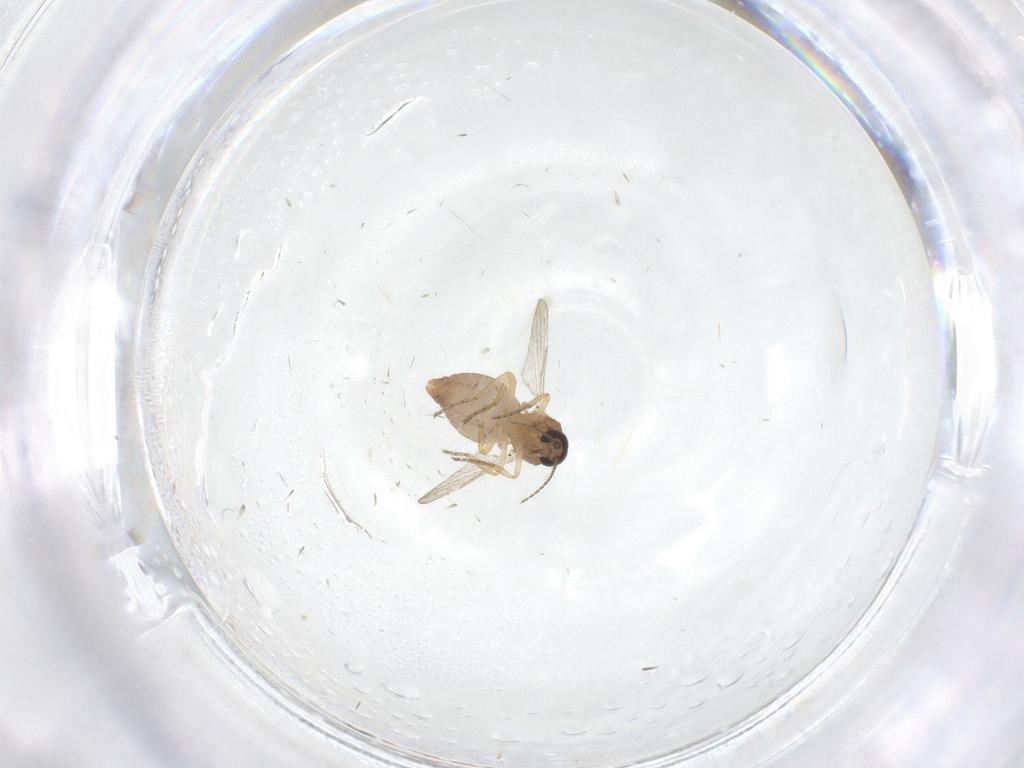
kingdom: Animalia
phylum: Arthropoda
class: Insecta
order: Diptera
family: Ceratopogonidae
